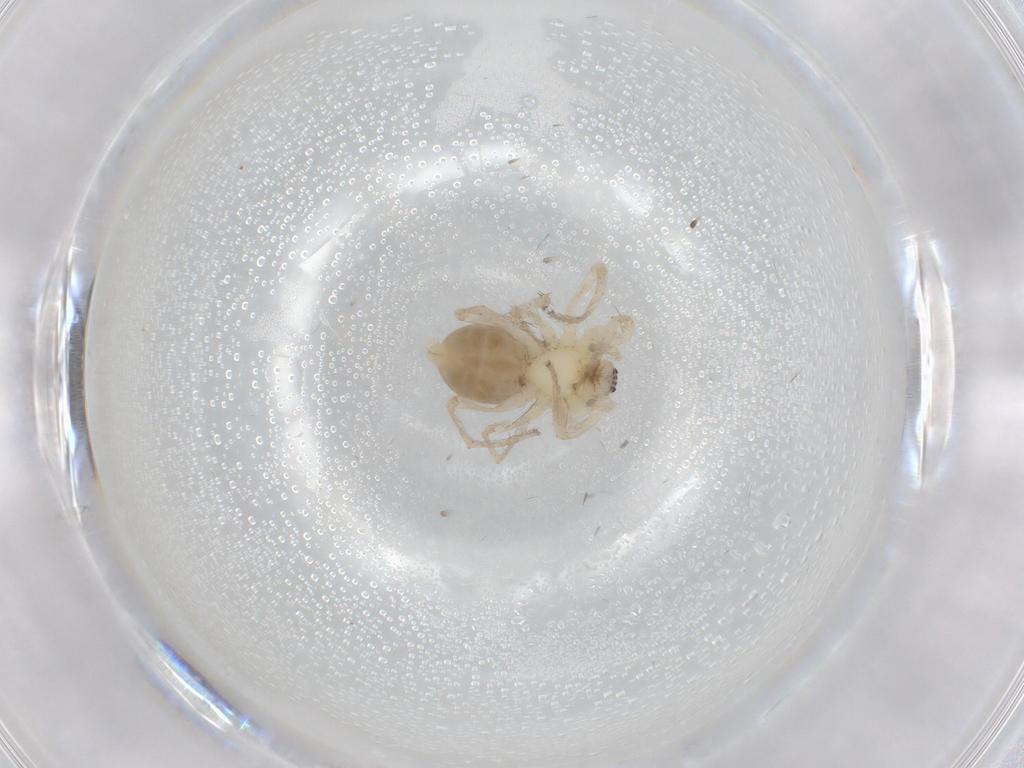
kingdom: Animalia
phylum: Arthropoda
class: Arachnida
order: Araneae
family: Anyphaenidae
